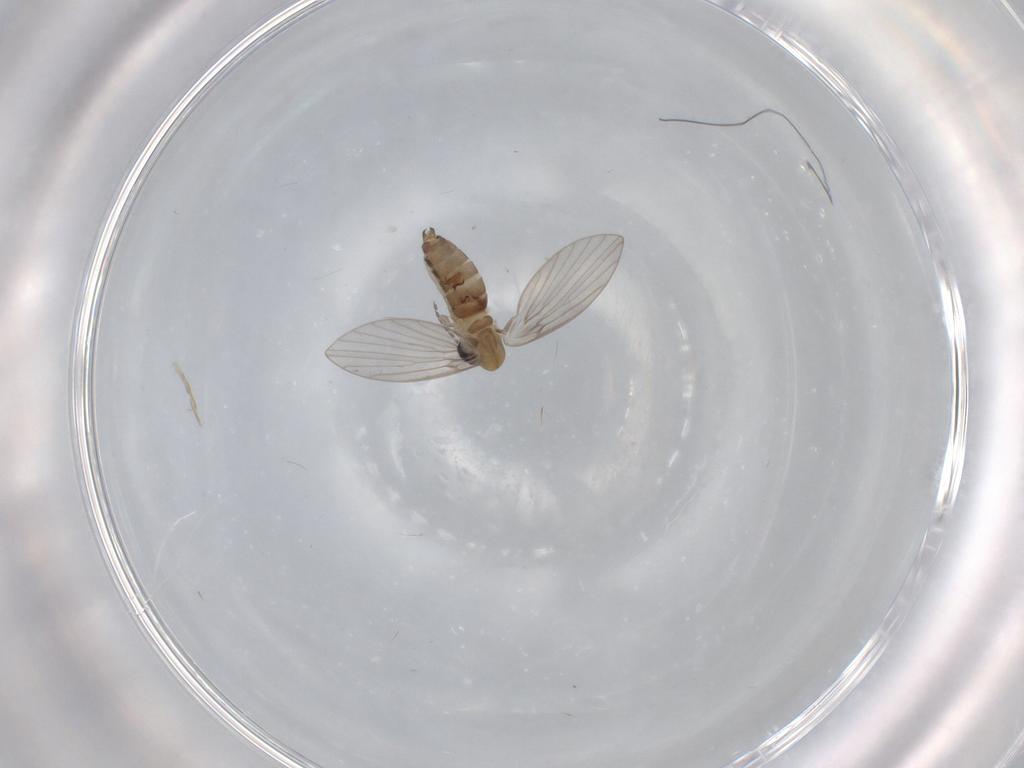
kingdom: Animalia
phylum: Arthropoda
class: Insecta
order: Diptera
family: Psychodidae
